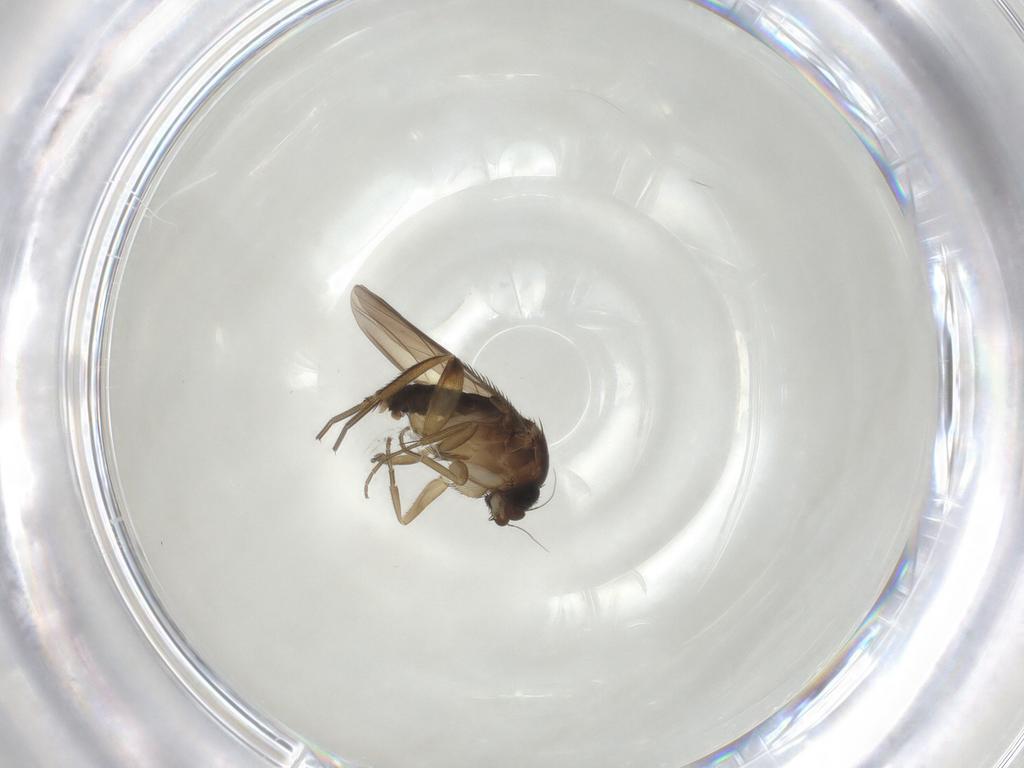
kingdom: Animalia
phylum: Arthropoda
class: Insecta
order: Diptera
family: Phoridae
